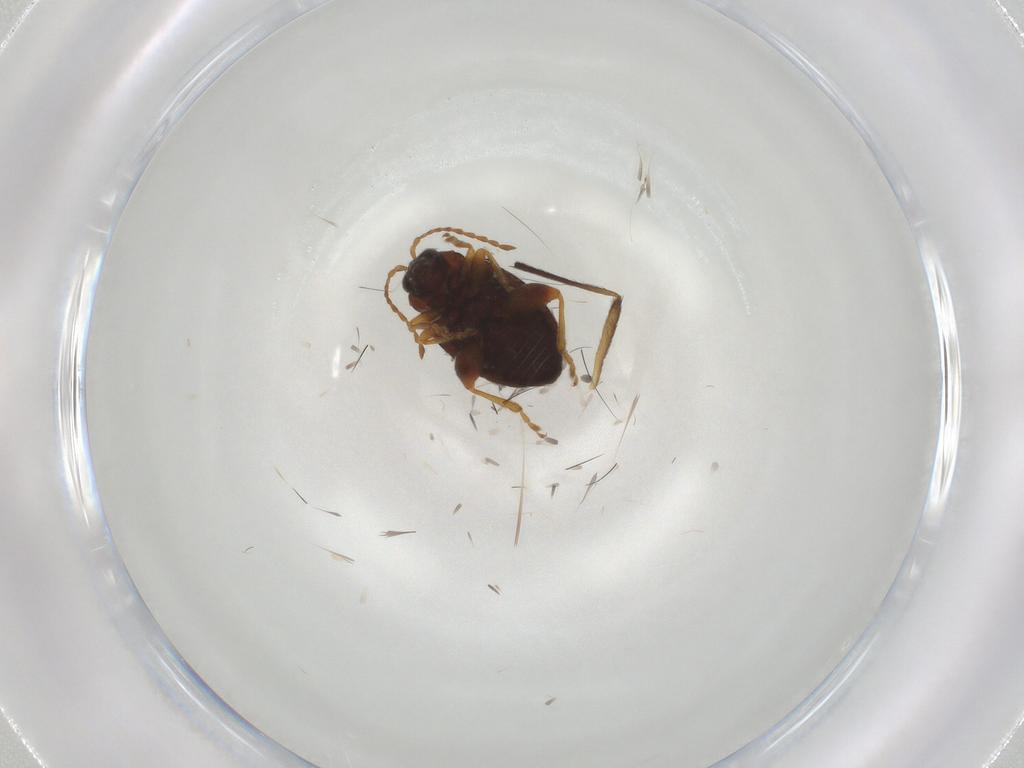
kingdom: Animalia
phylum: Arthropoda
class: Insecta
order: Coleoptera
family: Chrysomelidae
